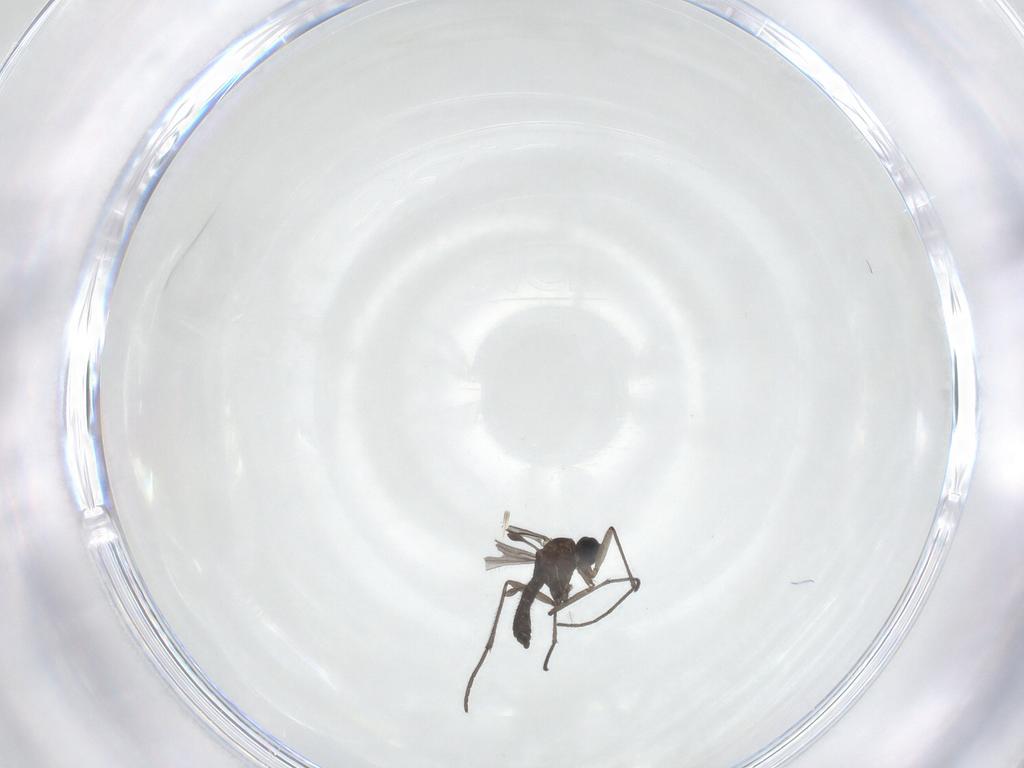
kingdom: Animalia
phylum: Arthropoda
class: Insecta
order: Diptera
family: Sciaridae
